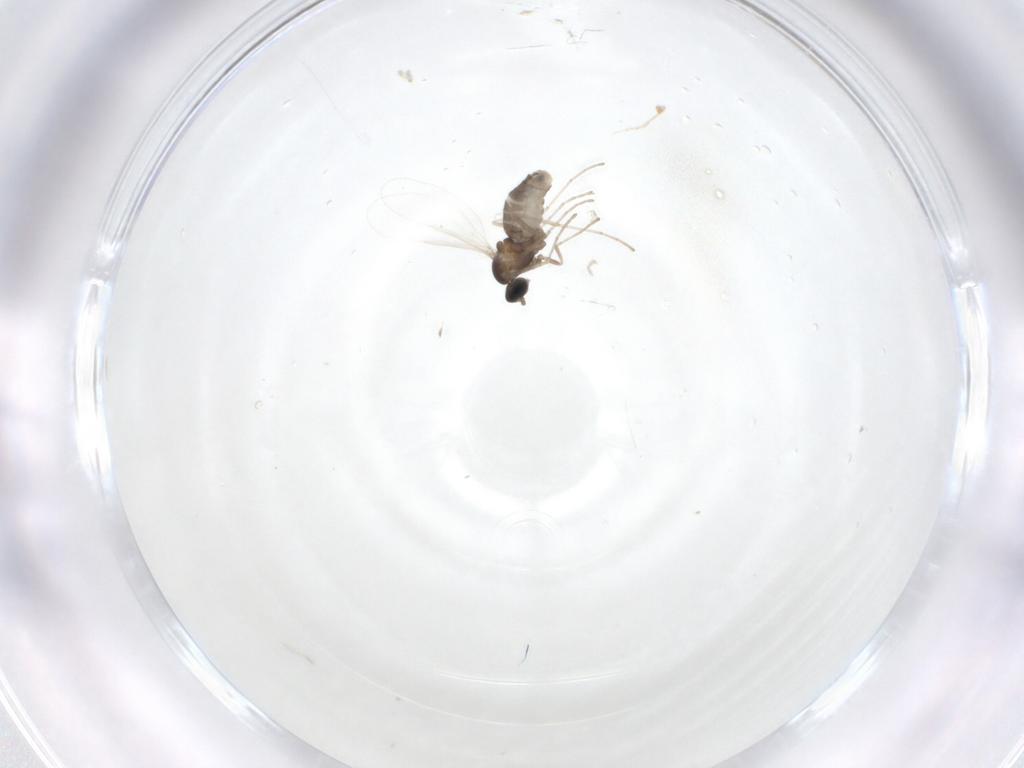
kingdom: Animalia
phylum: Arthropoda
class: Insecta
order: Diptera
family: Cecidomyiidae
